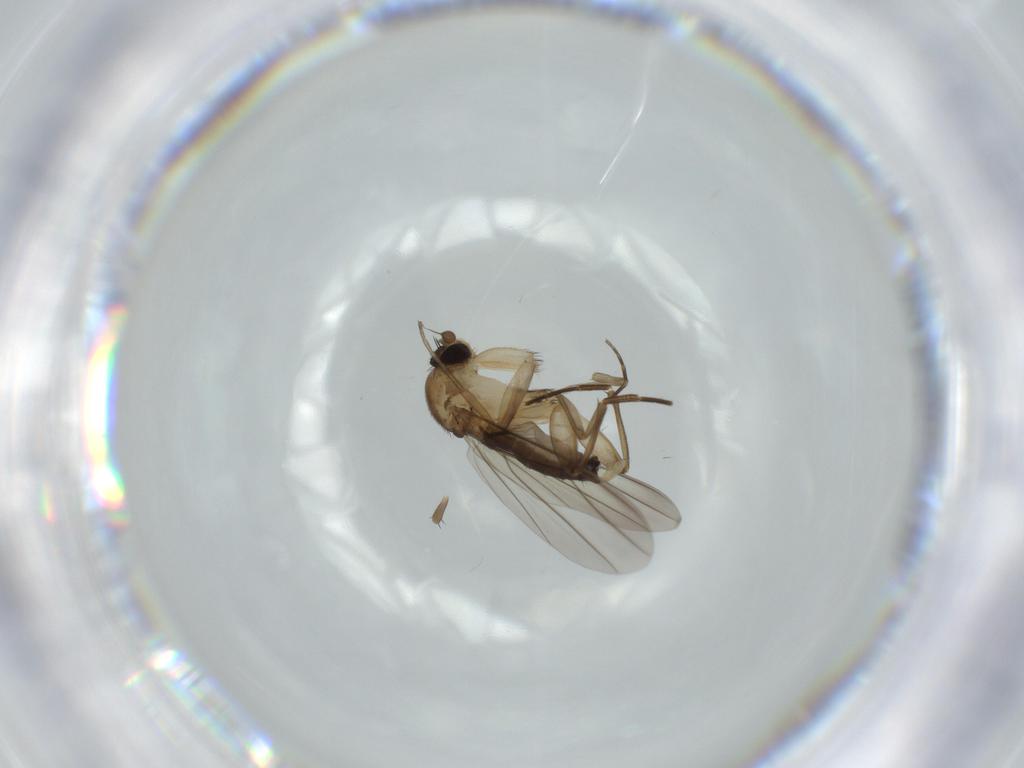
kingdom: Animalia
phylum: Arthropoda
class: Insecta
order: Diptera
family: Phoridae
